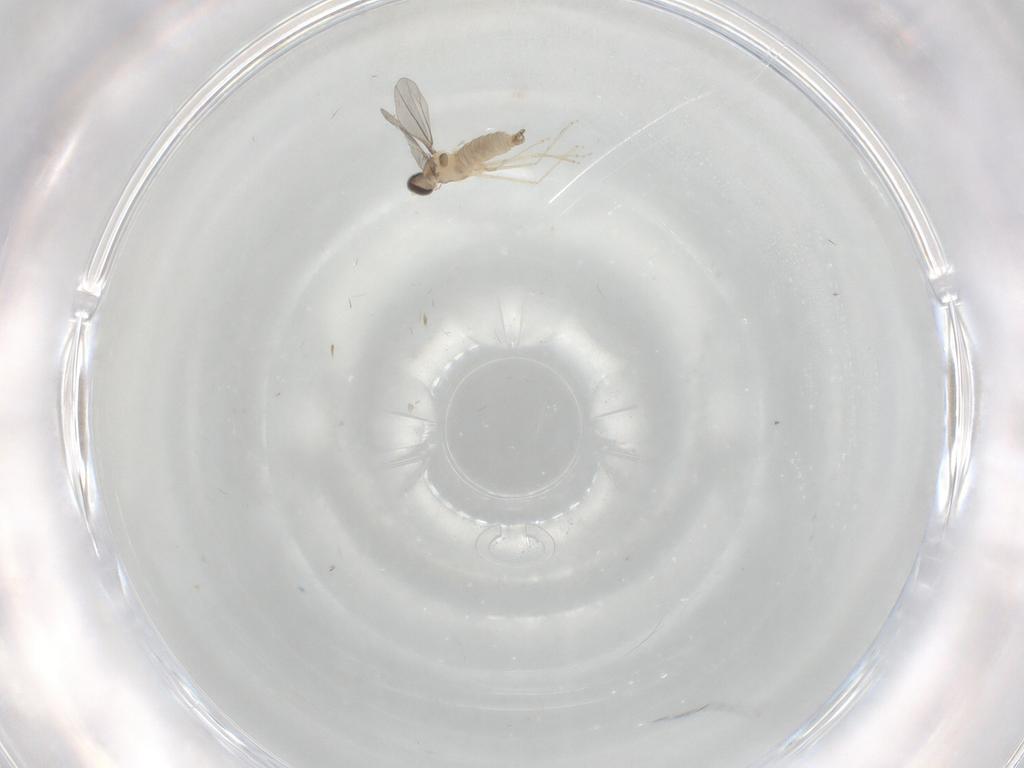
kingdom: Animalia
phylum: Arthropoda
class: Insecta
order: Diptera
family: Cecidomyiidae
